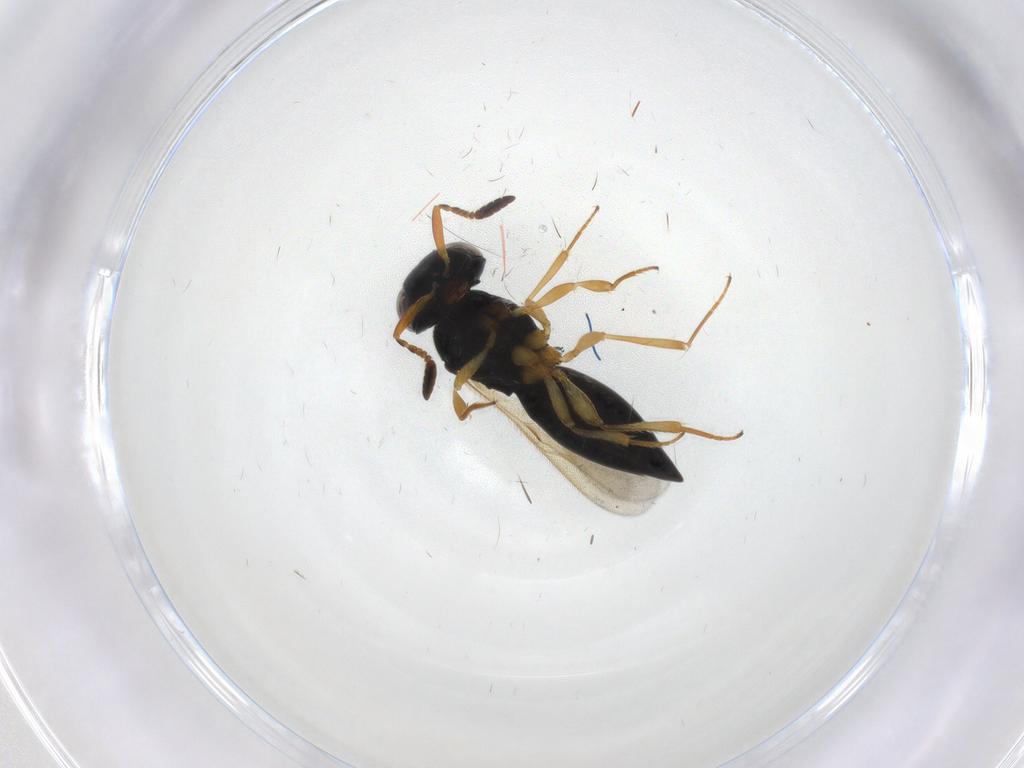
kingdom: Animalia
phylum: Arthropoda
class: Insecta
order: Hymenoptera
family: Scelionidae
